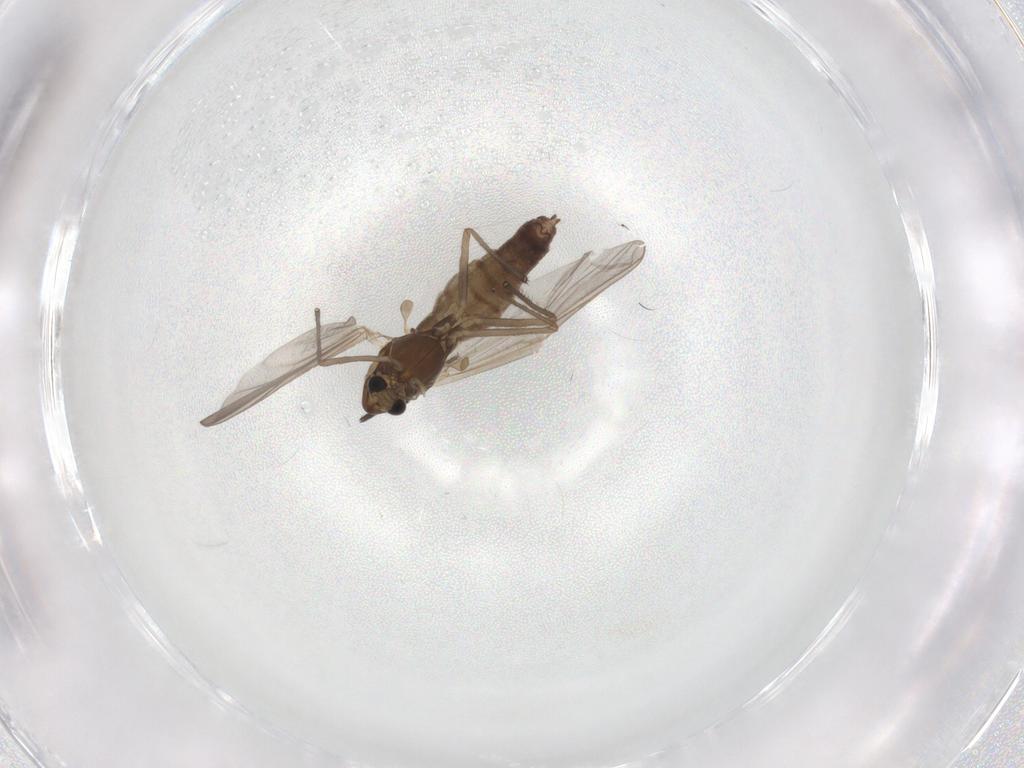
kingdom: Animalia
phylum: Arthropoda
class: Insecta
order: Diptera
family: Chironomidae
